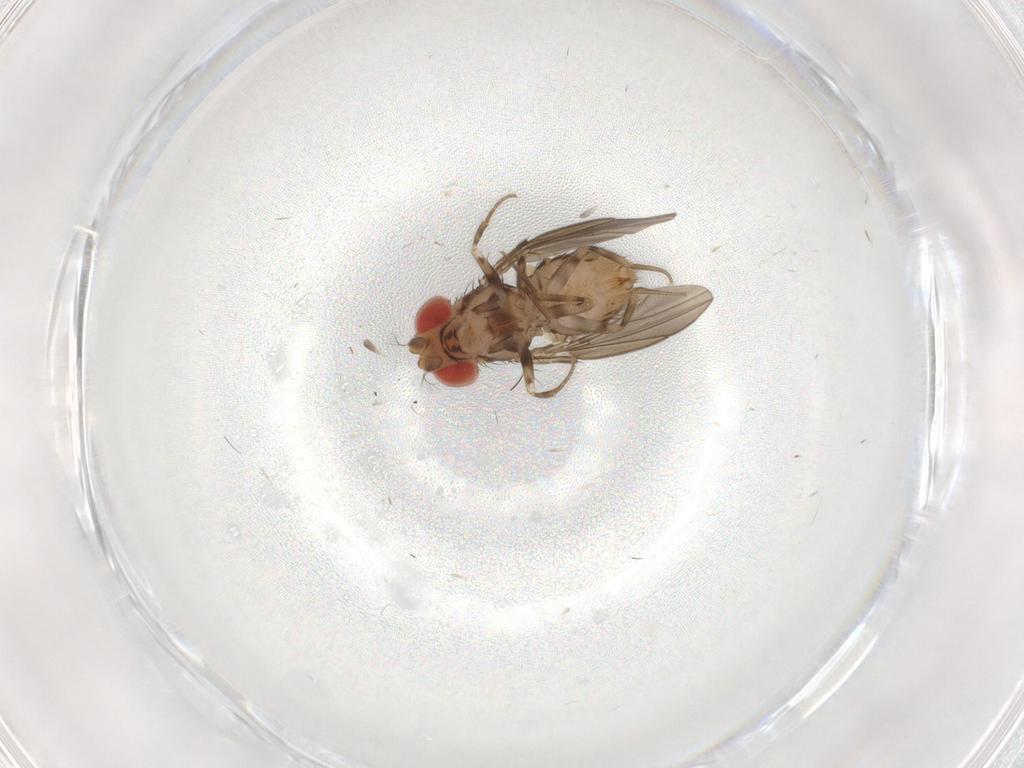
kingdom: Animalia
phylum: Arthropoda
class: Insecta
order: Diptera
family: Drosophilidae
